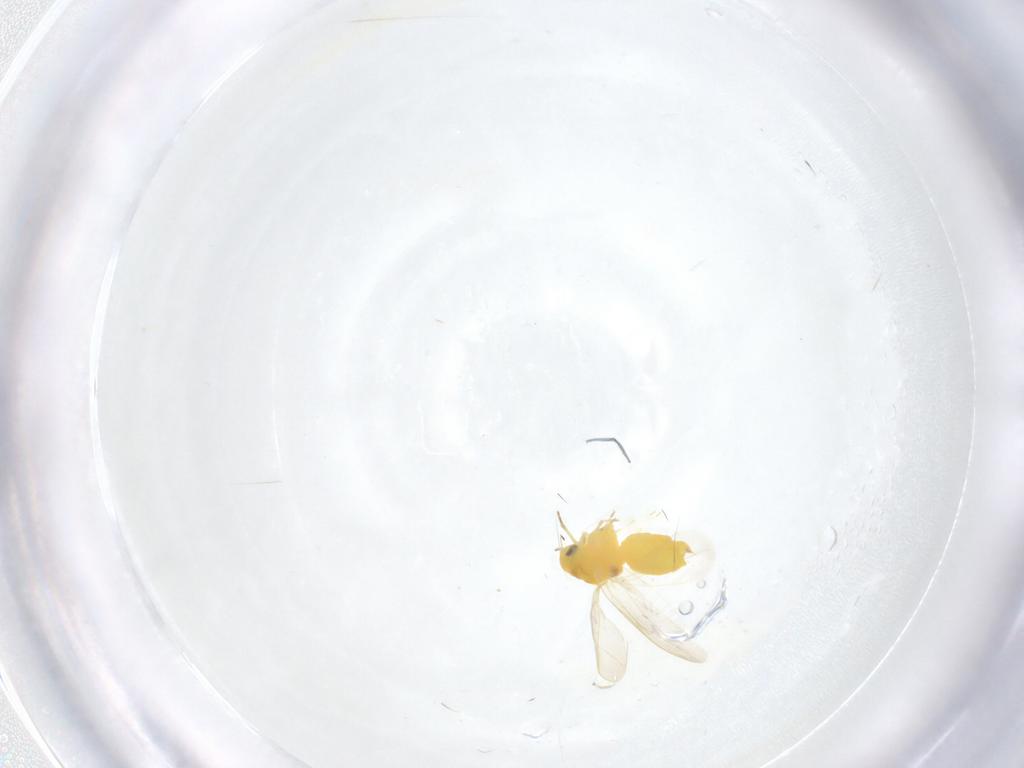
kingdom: Animalia
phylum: Arthropoda
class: Insecta
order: Hemiptera
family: Aleyrodidae
